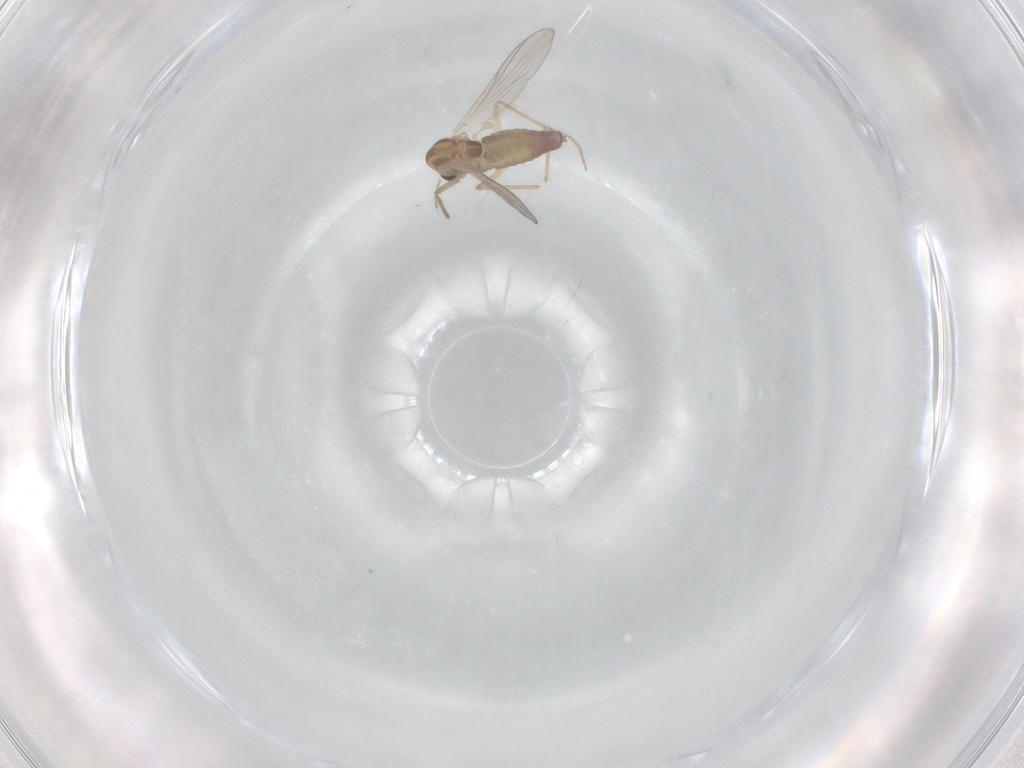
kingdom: Animalia
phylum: Arthropoda
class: Insecta
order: Diptera
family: Chironomidae
